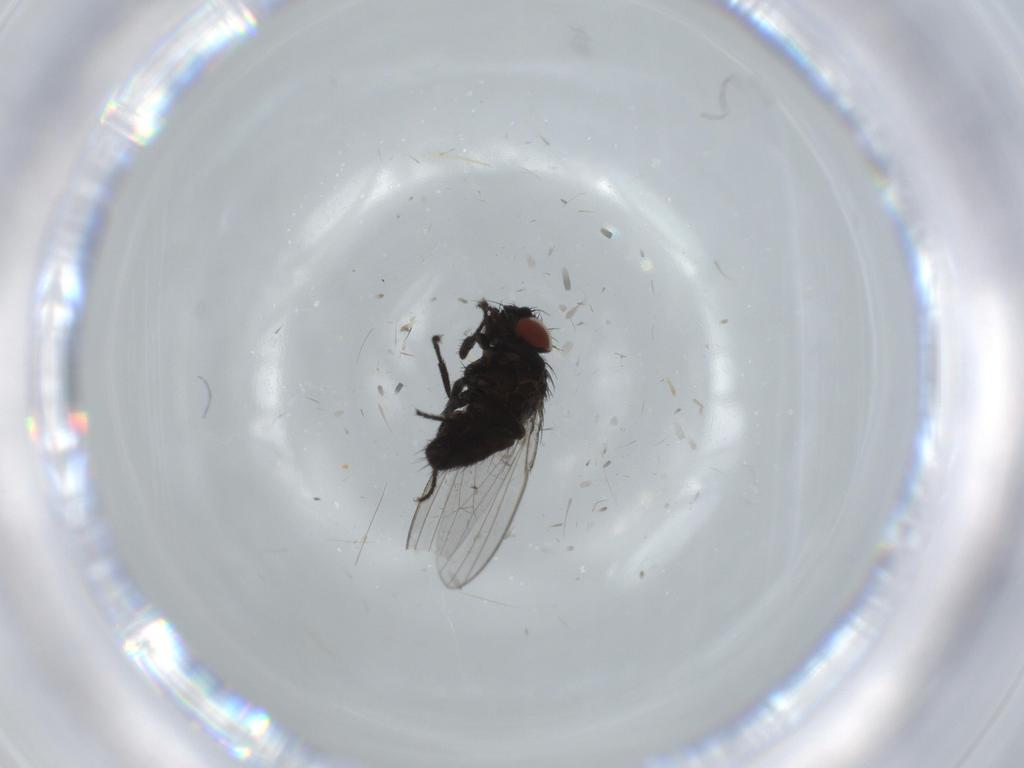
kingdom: Animalia
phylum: Arthropoda
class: Insecta
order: Diptera
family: Milichiidae
